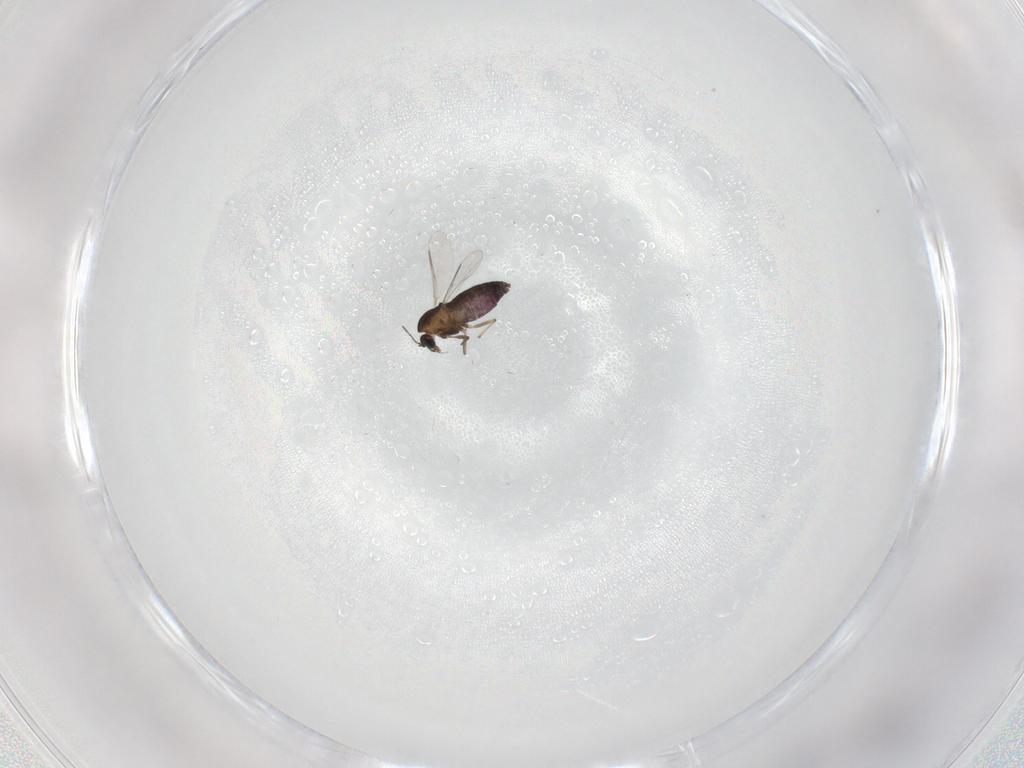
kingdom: Animalia
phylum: Arthropoda
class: Insecta
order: Diptera
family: Chironomidae
